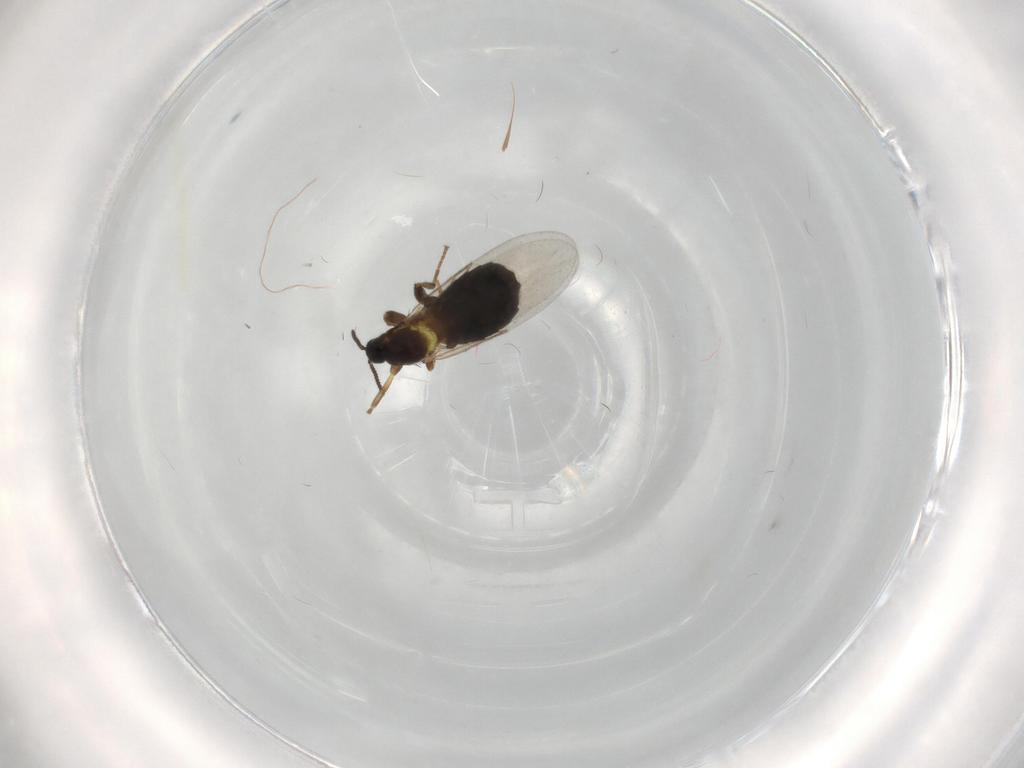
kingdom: Animalia
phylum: Arthropoda
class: Insecta
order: Diptera
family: Scatopsidae
